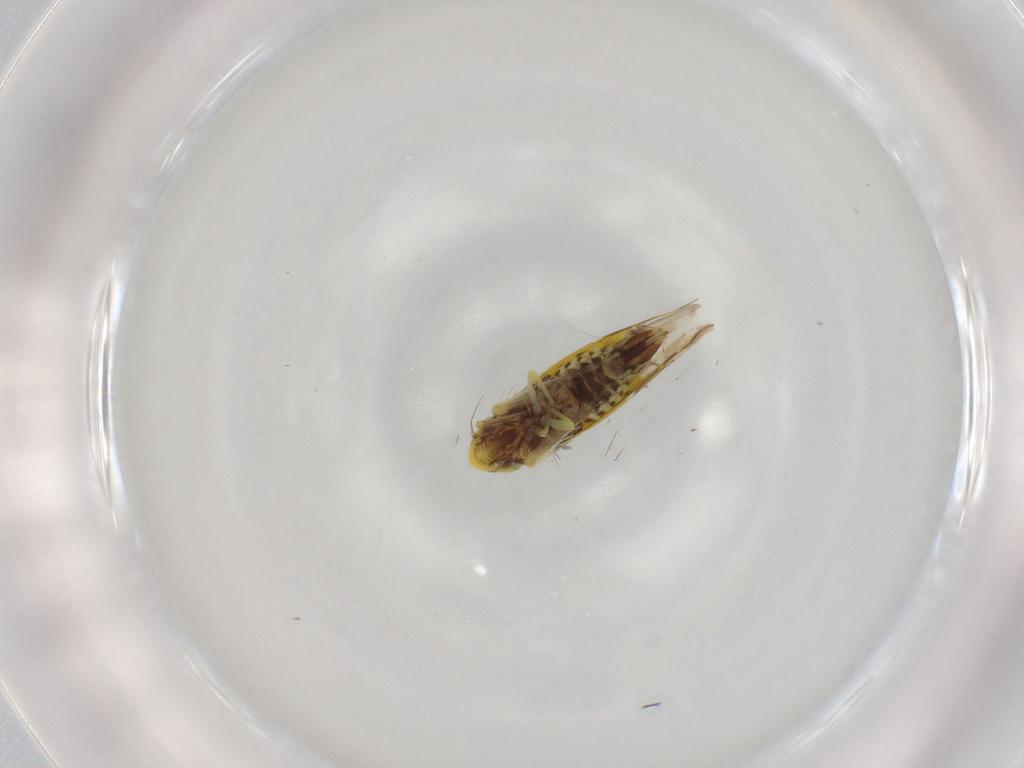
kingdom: Animalia
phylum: Arthropoda
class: Insecta
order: Hemiptera
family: Cicadellidae
